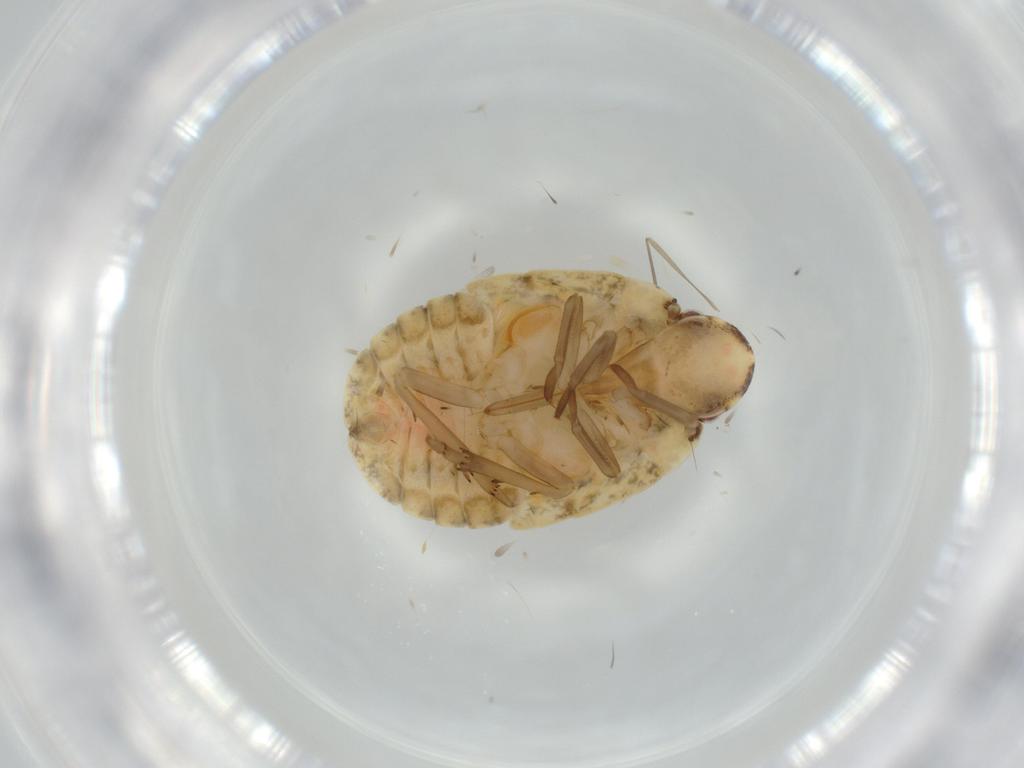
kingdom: Animalia
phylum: Arthropoda
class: Insecta
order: Hemiptera
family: Flatidae
